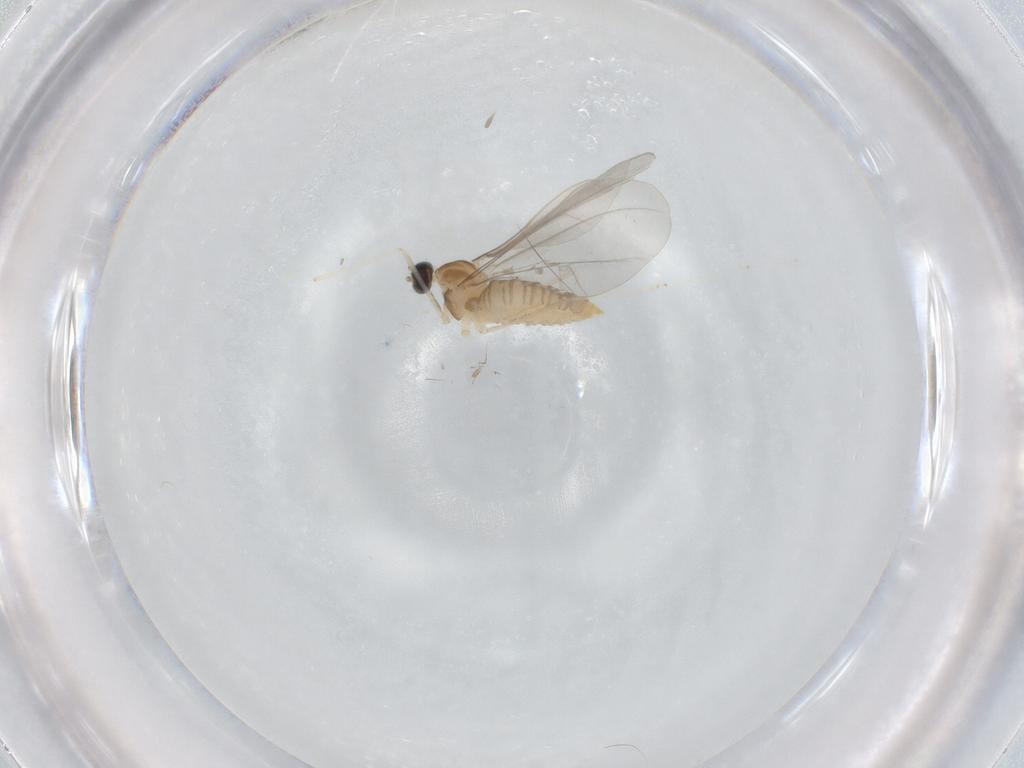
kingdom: Animalia
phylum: Arthropoda
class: Insecta
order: Diptera
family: Cecidomyiidae
